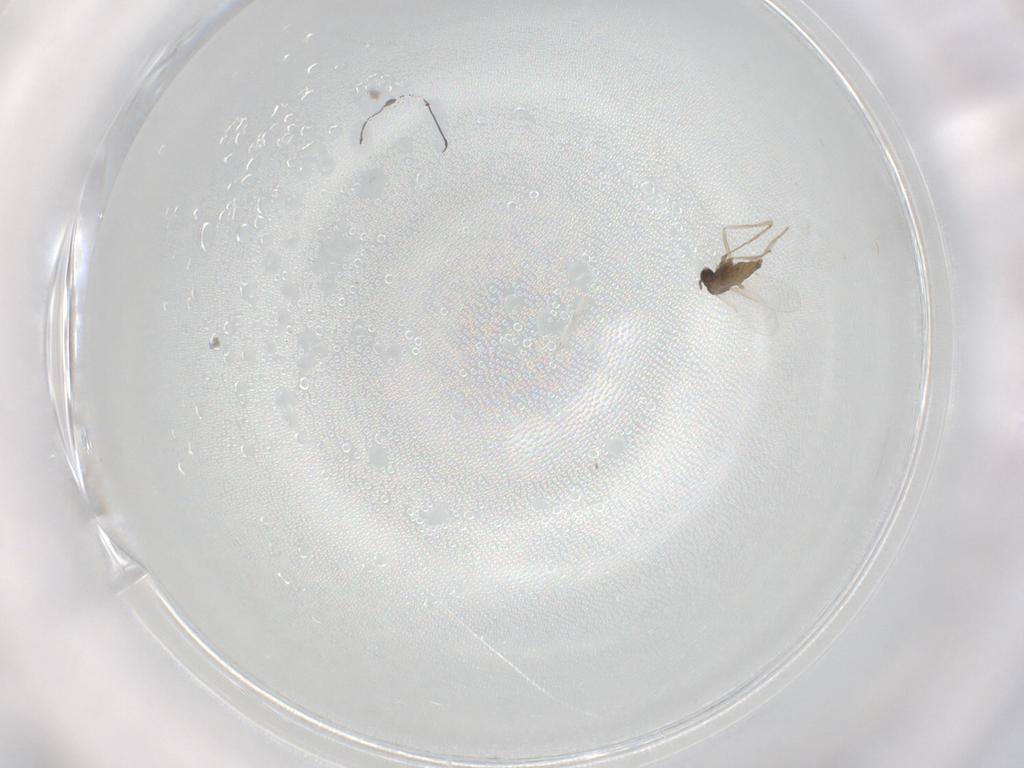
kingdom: Animalia
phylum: Arthropoda
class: Insecta
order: Diptera
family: Cecidomyiidae
